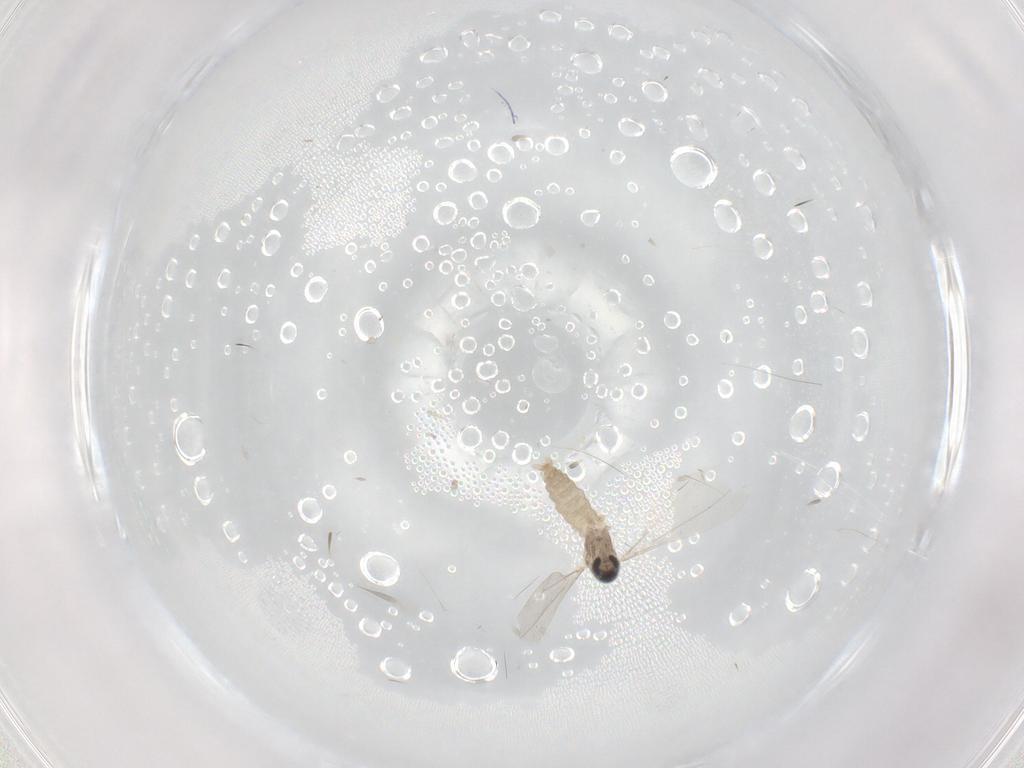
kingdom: Animalia
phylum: Arthropoda
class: Insecta
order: Diptera
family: Cecidomyiidae
